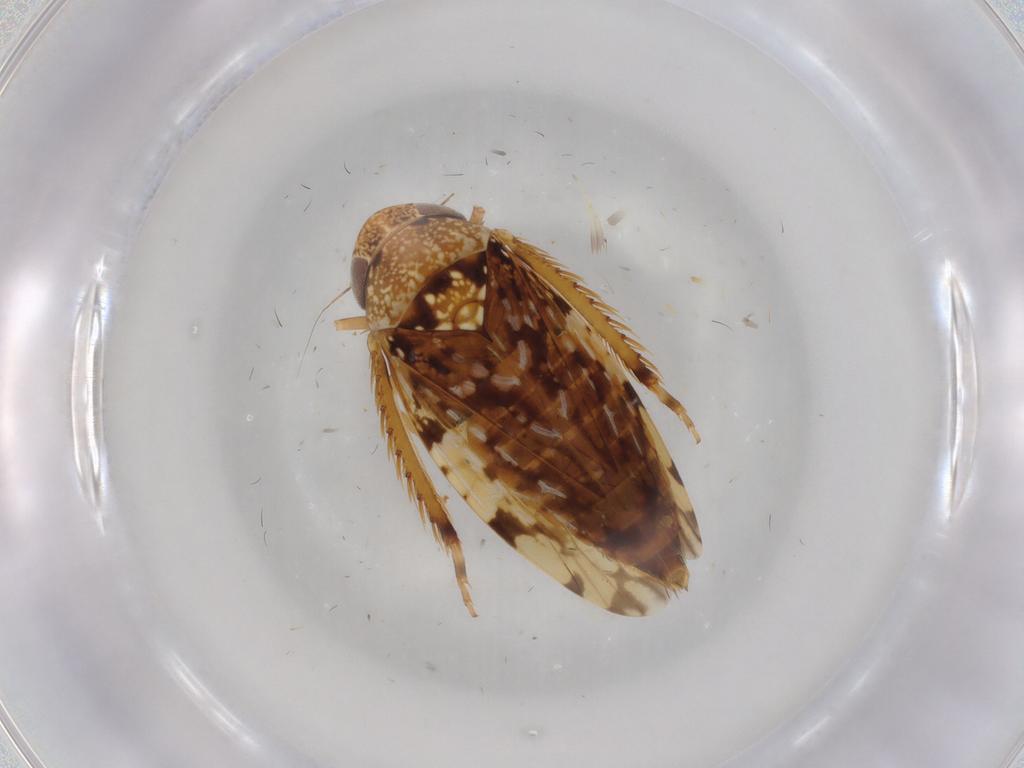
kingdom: Animalia
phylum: Arthropoda
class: Insecta
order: Hemiptera
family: Cicadellidae
